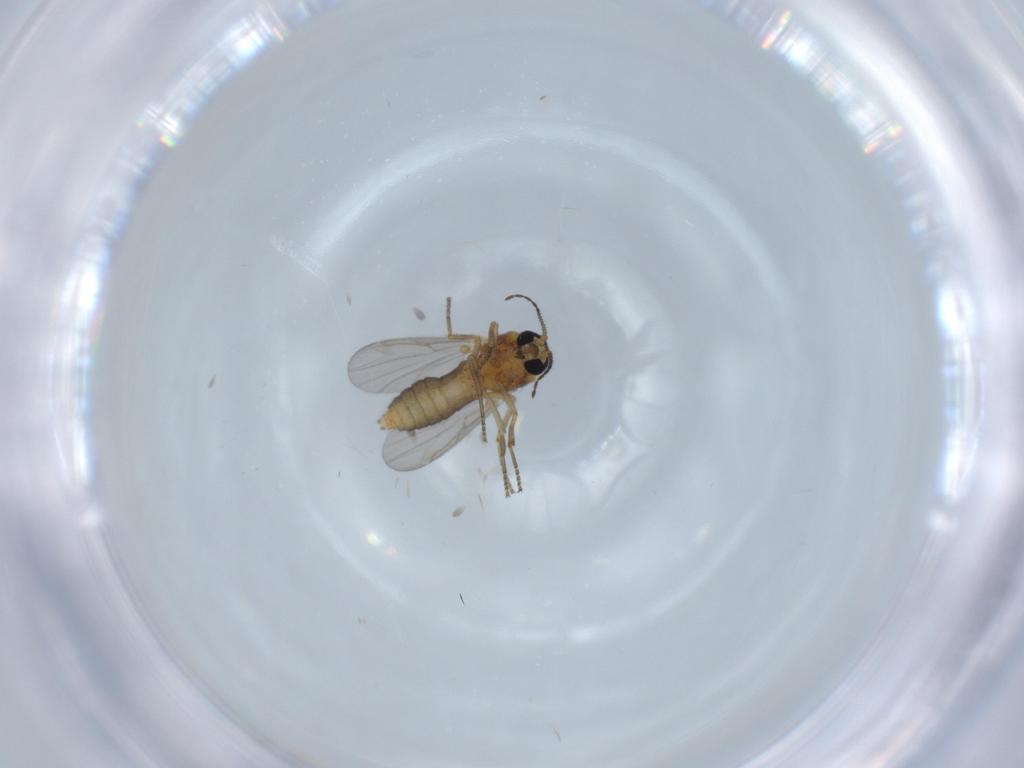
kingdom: Animalia
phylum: Arthropoda
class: Insecta
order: Diptera
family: Ceratopogonidae
